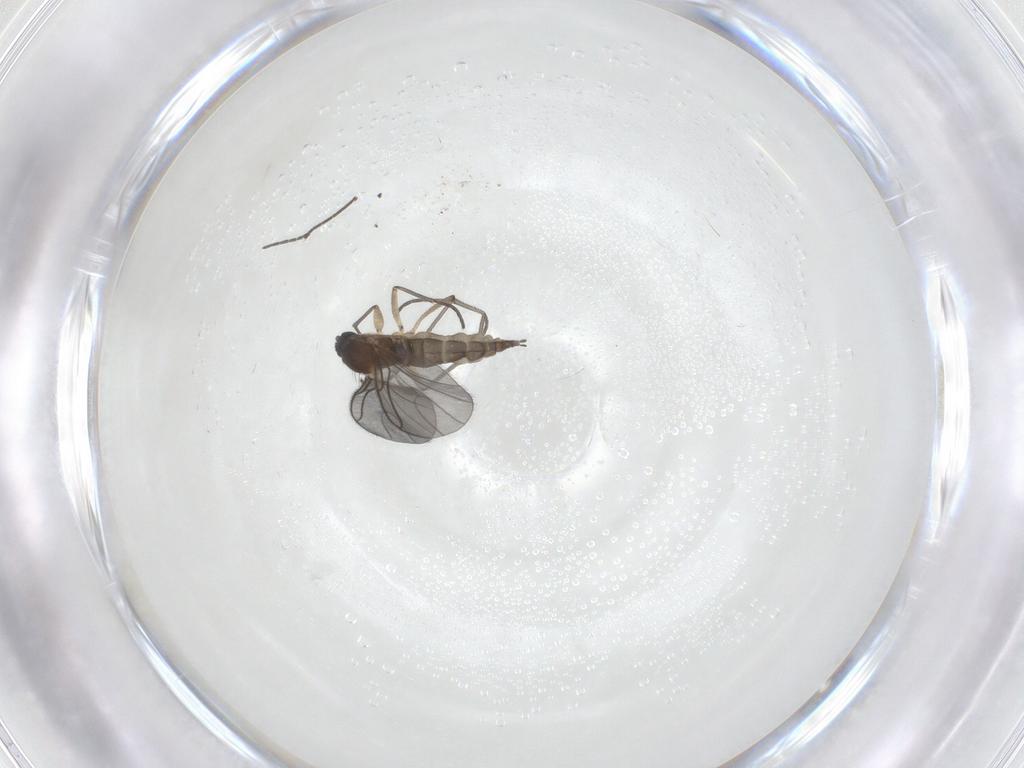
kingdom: Animalia
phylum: Arthropoda
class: Insecta
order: Diptera
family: Sciaridae
